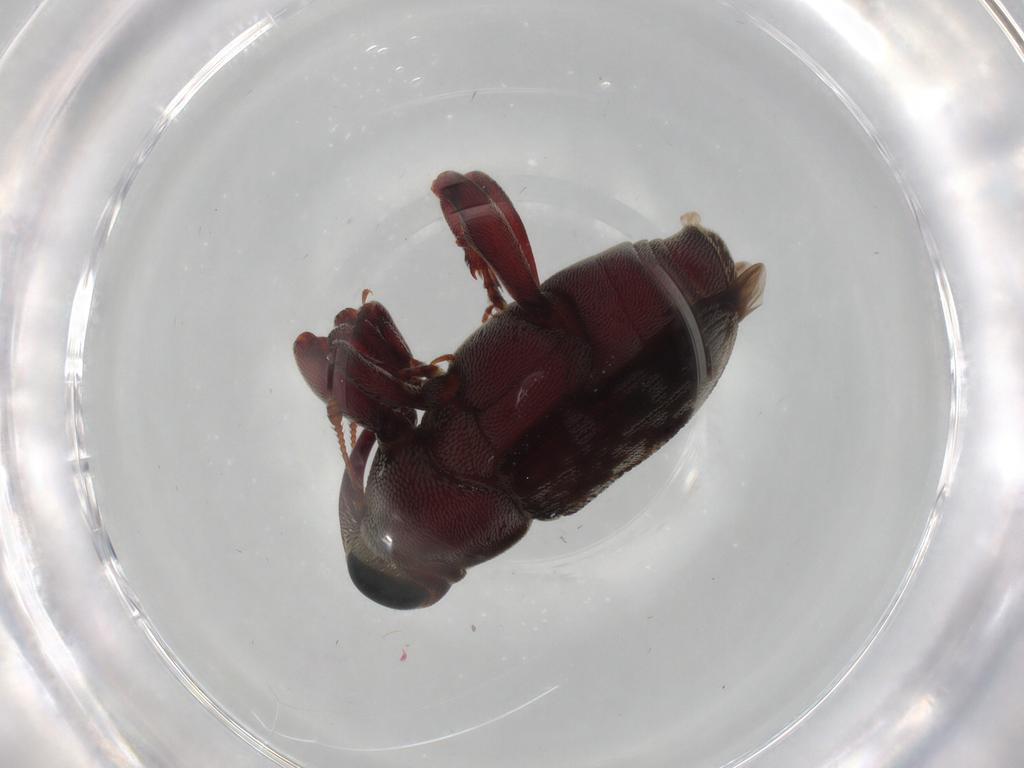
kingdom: Animalia
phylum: Arthropoda
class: Insecta
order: Coleoptera
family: Curculionidae
